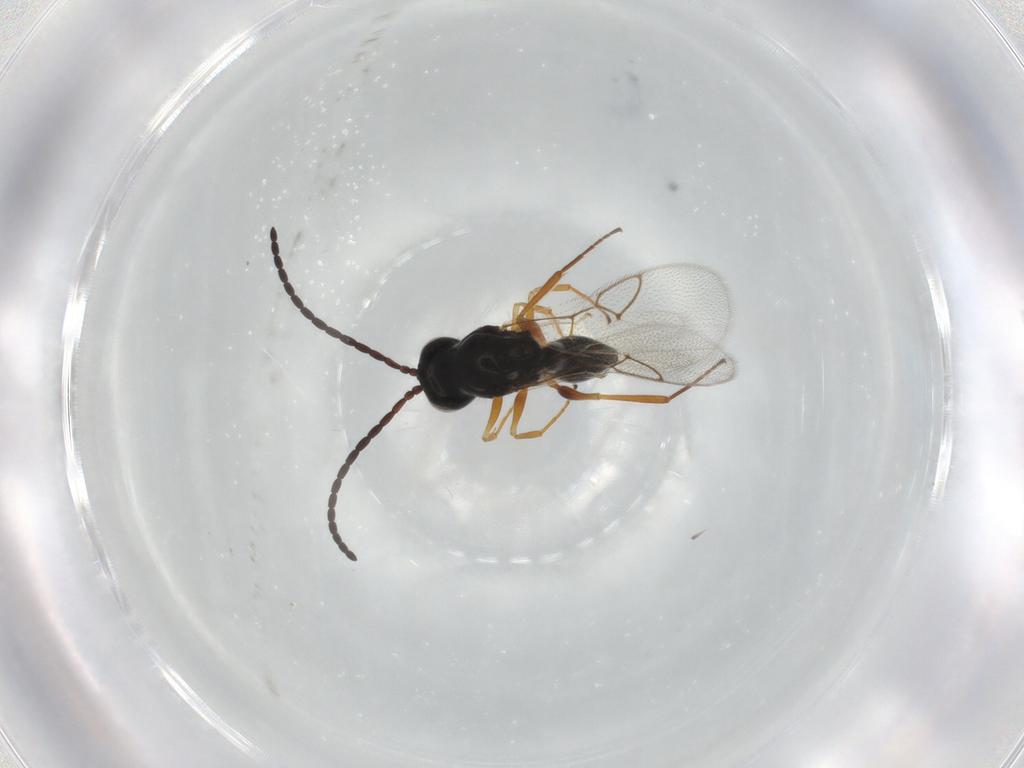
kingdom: Animalia
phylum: Arthropoda
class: Insecta
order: Hymenoptera
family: Figitidae
